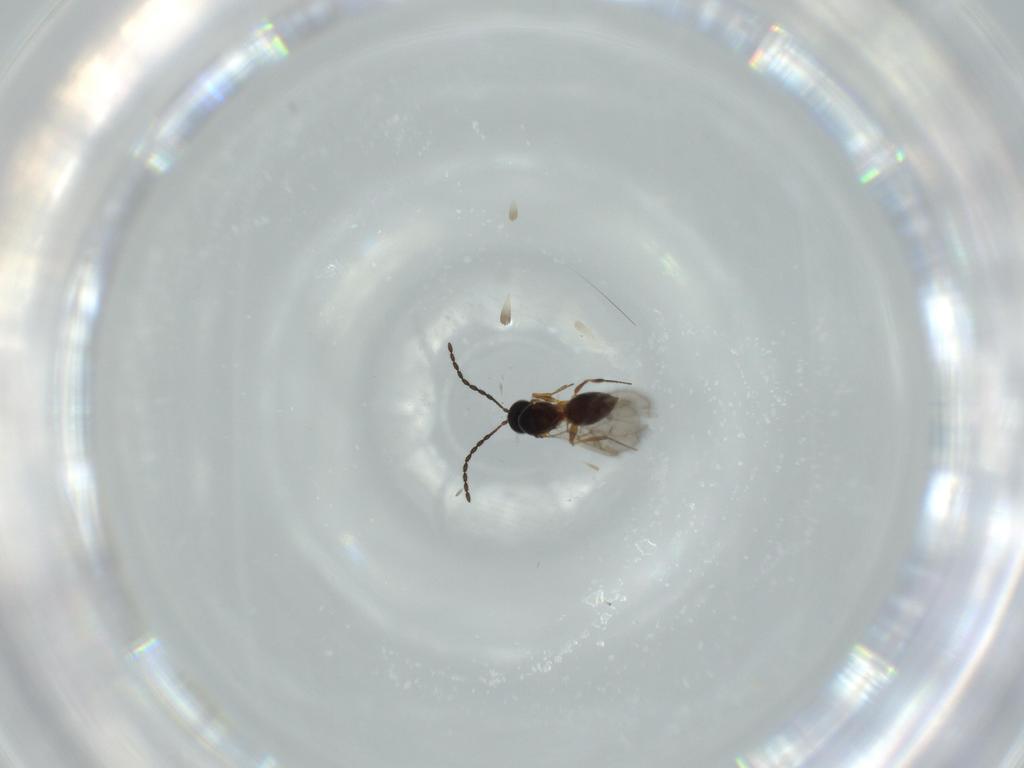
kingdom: Animalia
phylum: Arthropoda
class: Insecta
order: Hymenoptera
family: Figitidae
